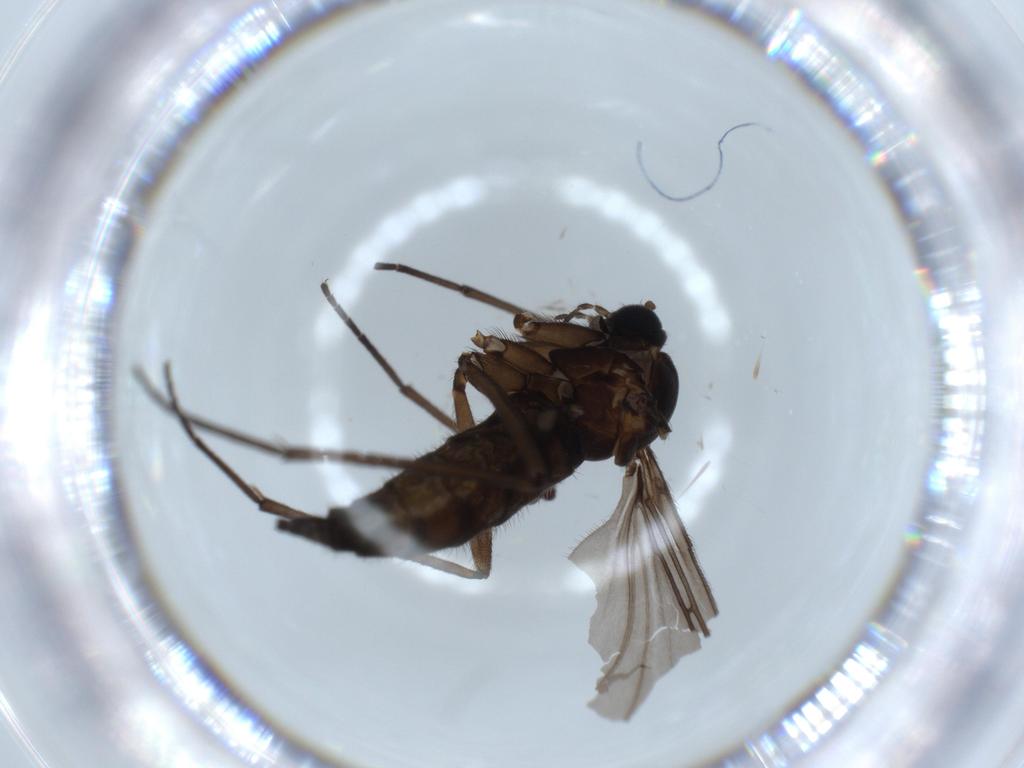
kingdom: Animalia
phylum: Arthropoda
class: Insecta
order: Diptera
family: Sciaridae
